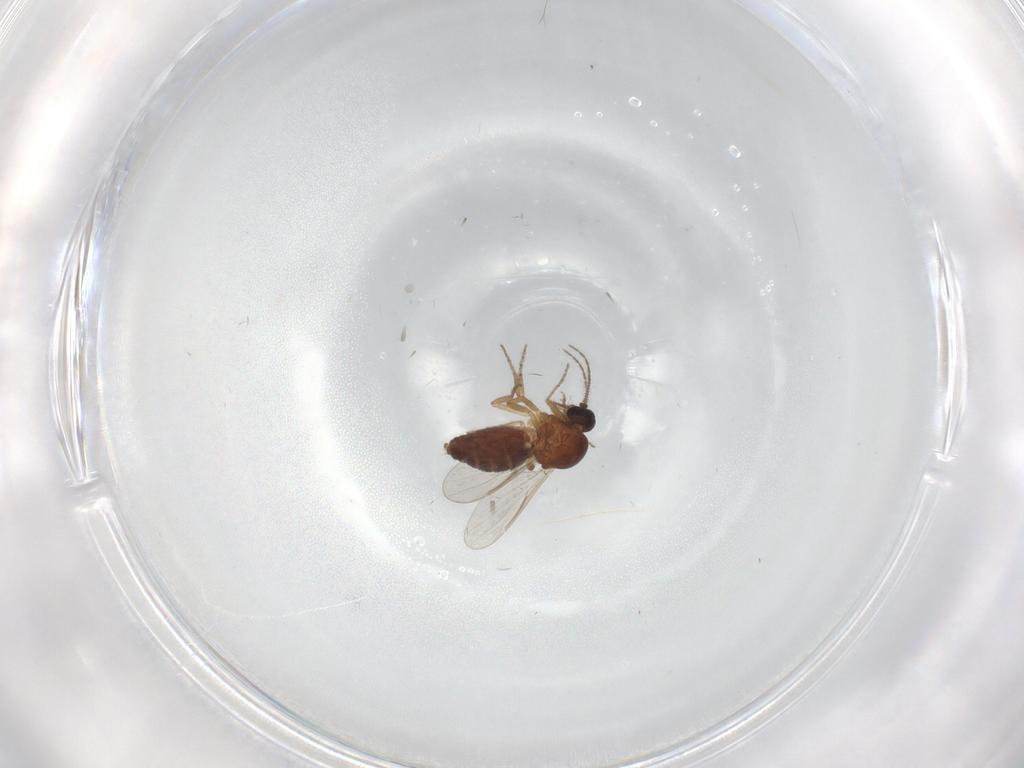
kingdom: Animalia
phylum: Arthropoda
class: Insecta
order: Diptera
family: Ceratopogonidae
